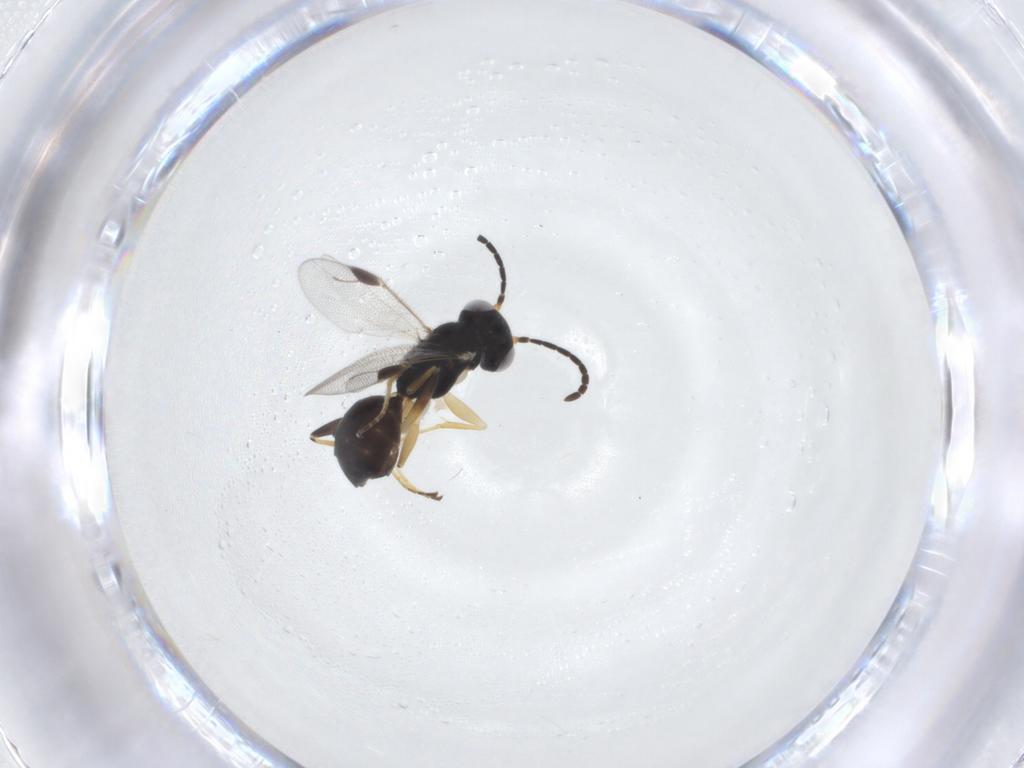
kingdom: Animalia
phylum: Arthropoda
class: Insecta
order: Hymenoptera
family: Dryinidae
